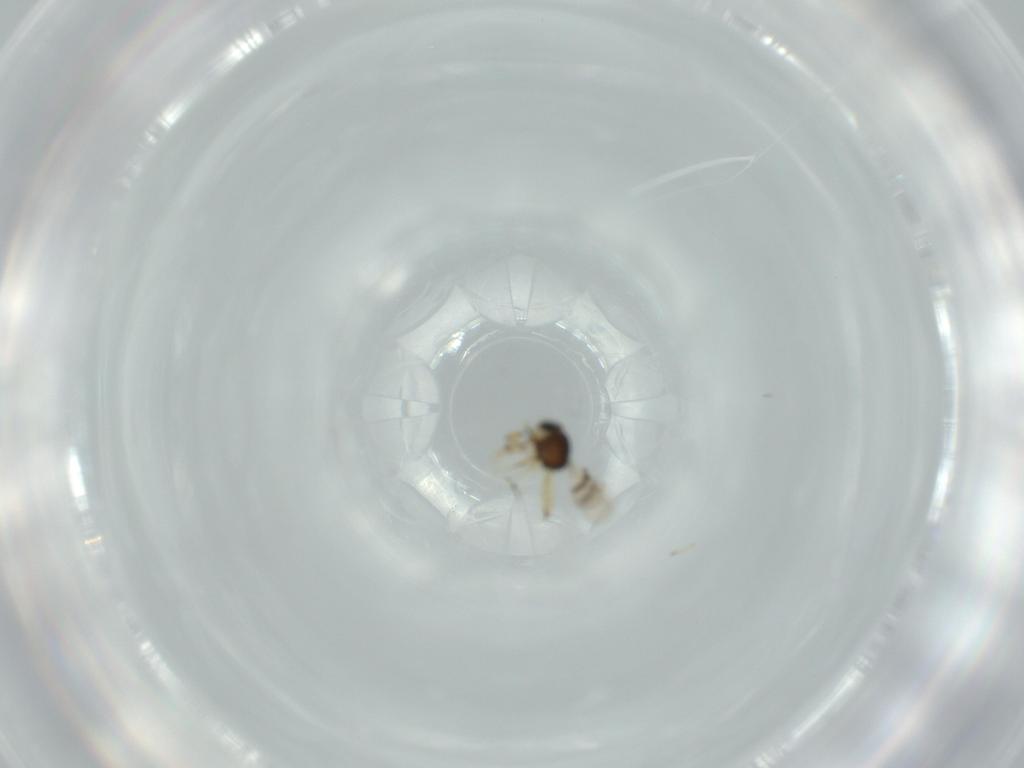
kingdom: Animalia
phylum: Arthropoda
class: Insecta
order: Hymenoptera
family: Scelionidae
